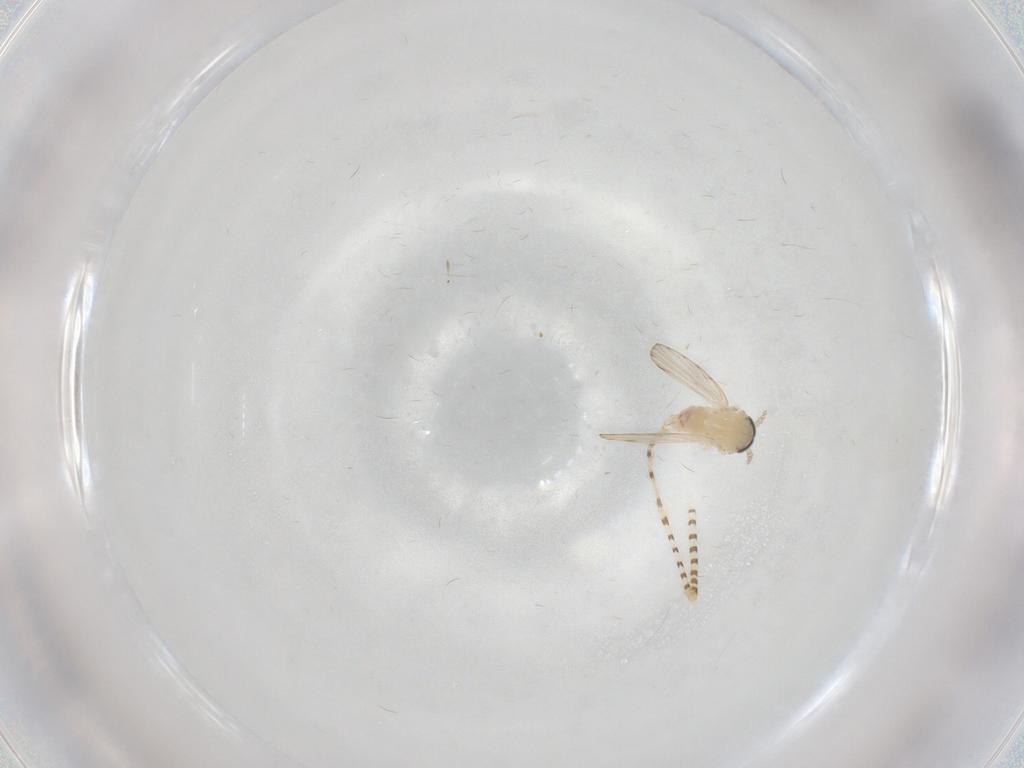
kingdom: Animalia
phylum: Arthropoda
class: Insecta
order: Diptera
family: Psychodidae
